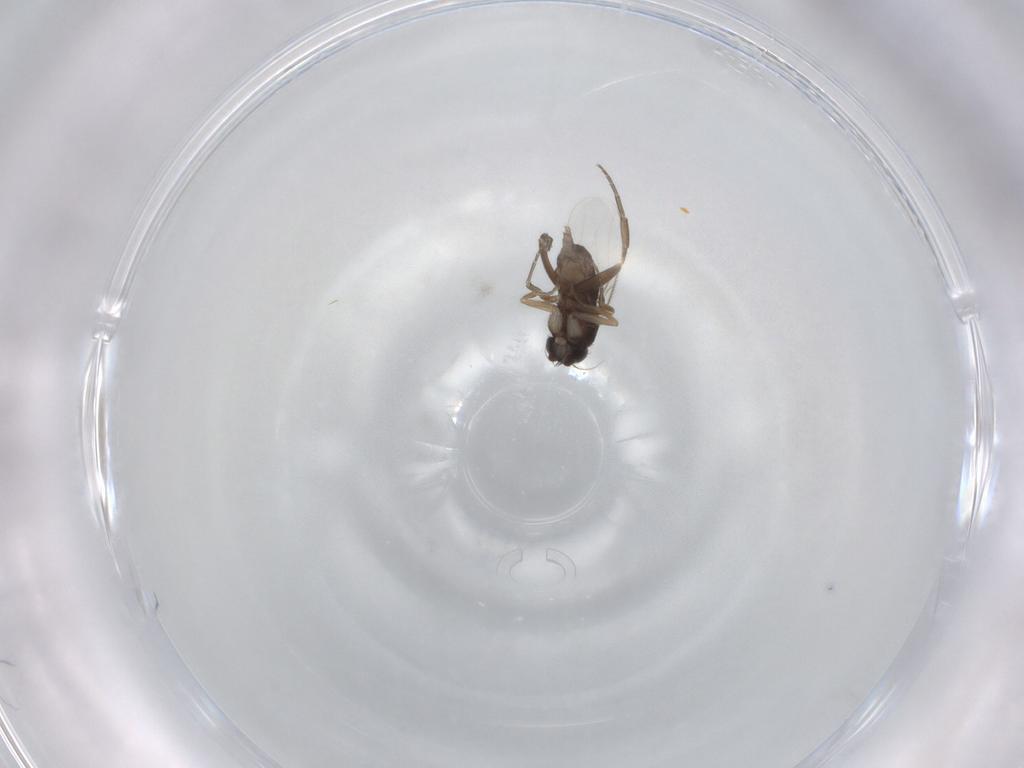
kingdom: Animalia
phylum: Arthropoda
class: Insecta
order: Diptera
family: Phoridae
